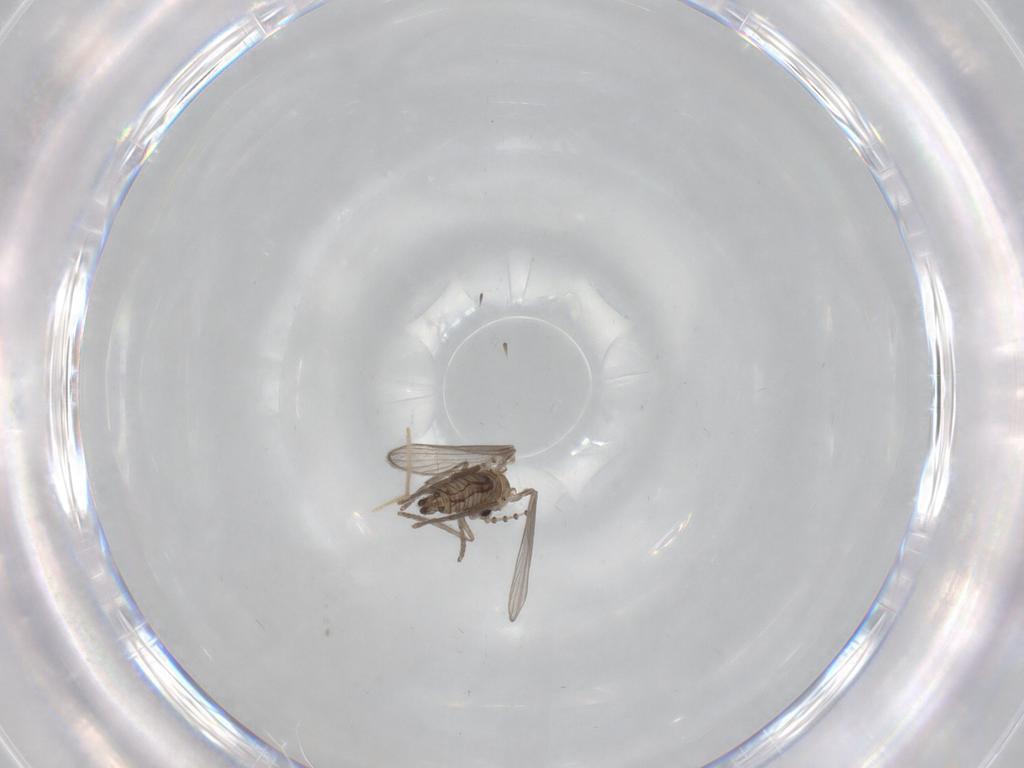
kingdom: Animalia
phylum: Arthropoda
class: Insecta
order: Diptera
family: Psychodidae
